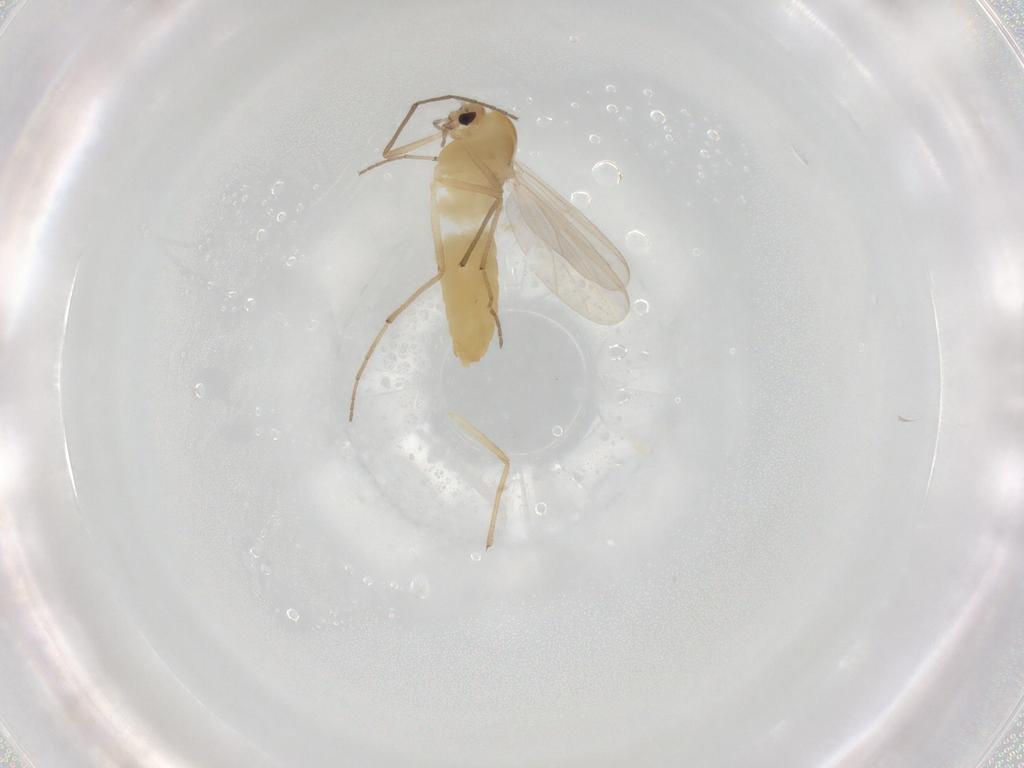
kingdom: Animalia
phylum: Arthropoda
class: Insecta
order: Diptera
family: Chironomidae
